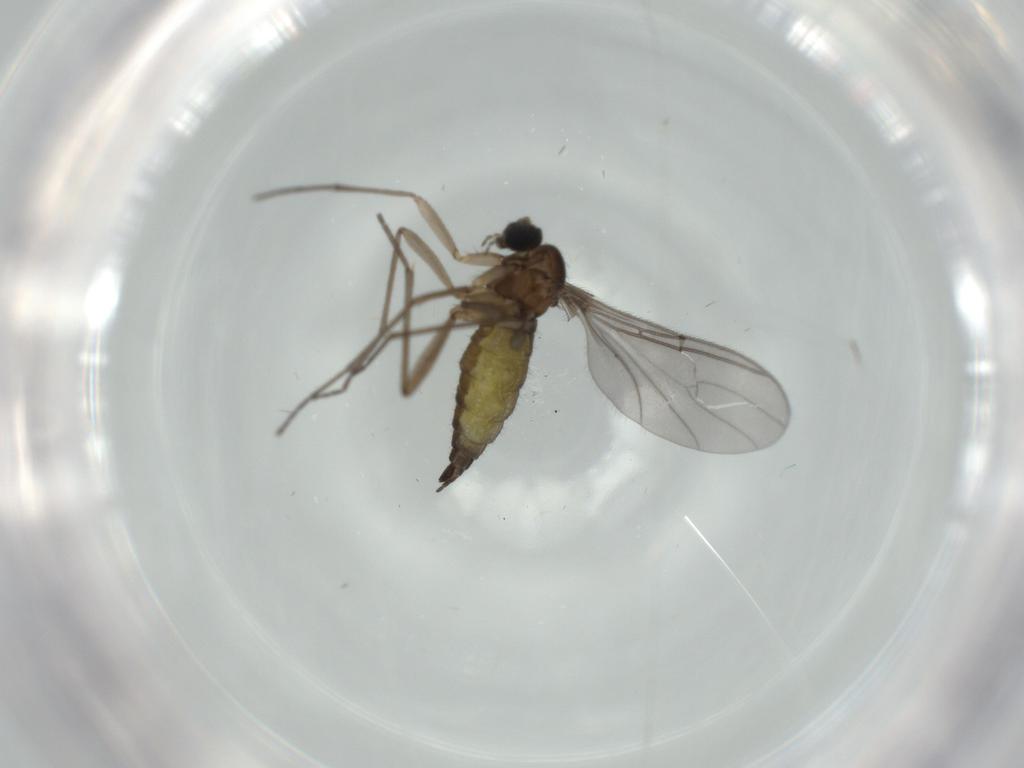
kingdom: Animalia
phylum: Arthropoda
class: Insecta
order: Diptera
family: Sciaridae
